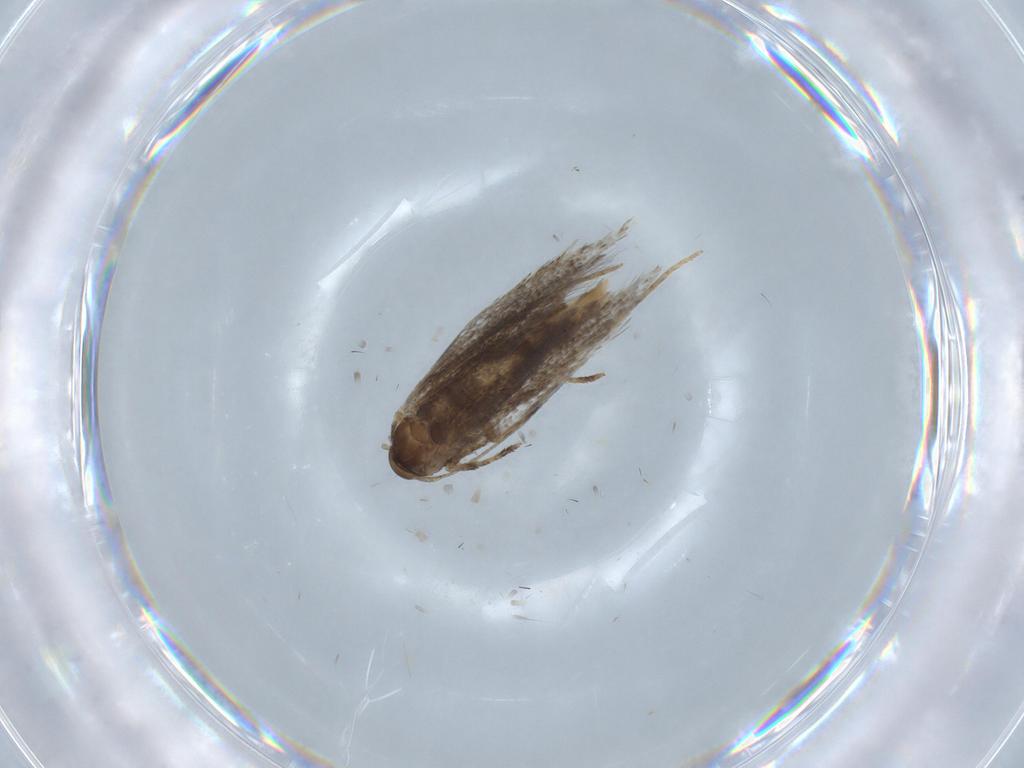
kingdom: Animalia
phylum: Arthropoda
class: Insecta
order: Lepidoptera
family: Elachistidae
